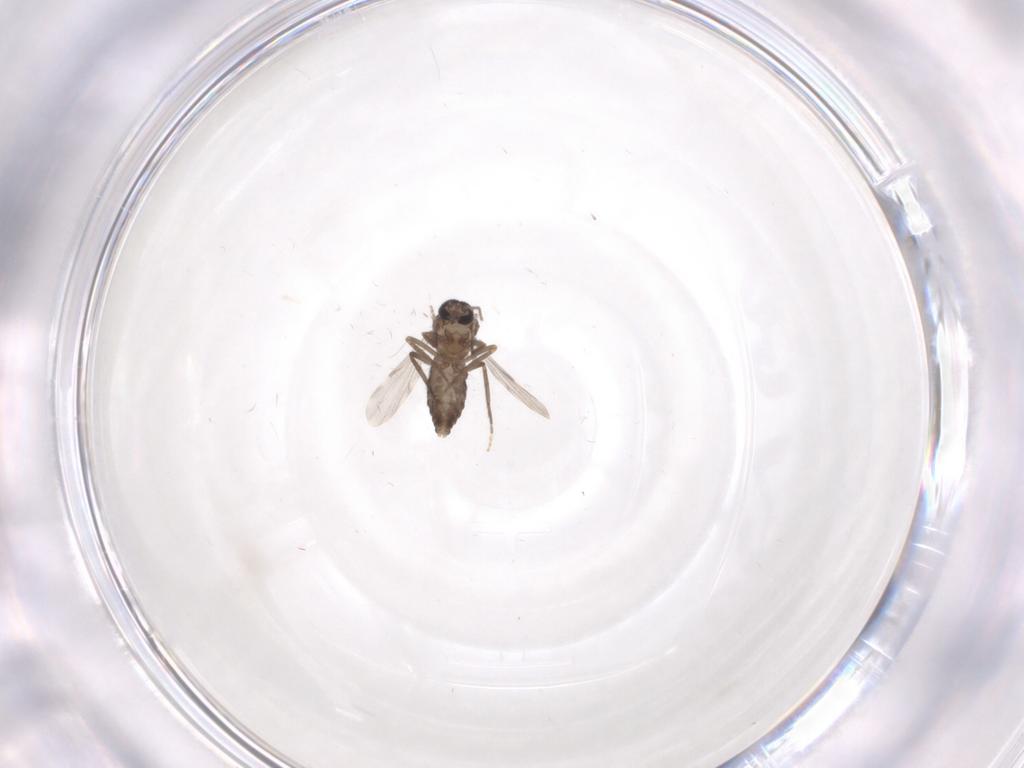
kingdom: Animalia
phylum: Arthropoda
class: Insecta
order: Diptera
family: Ceratopogonidae
